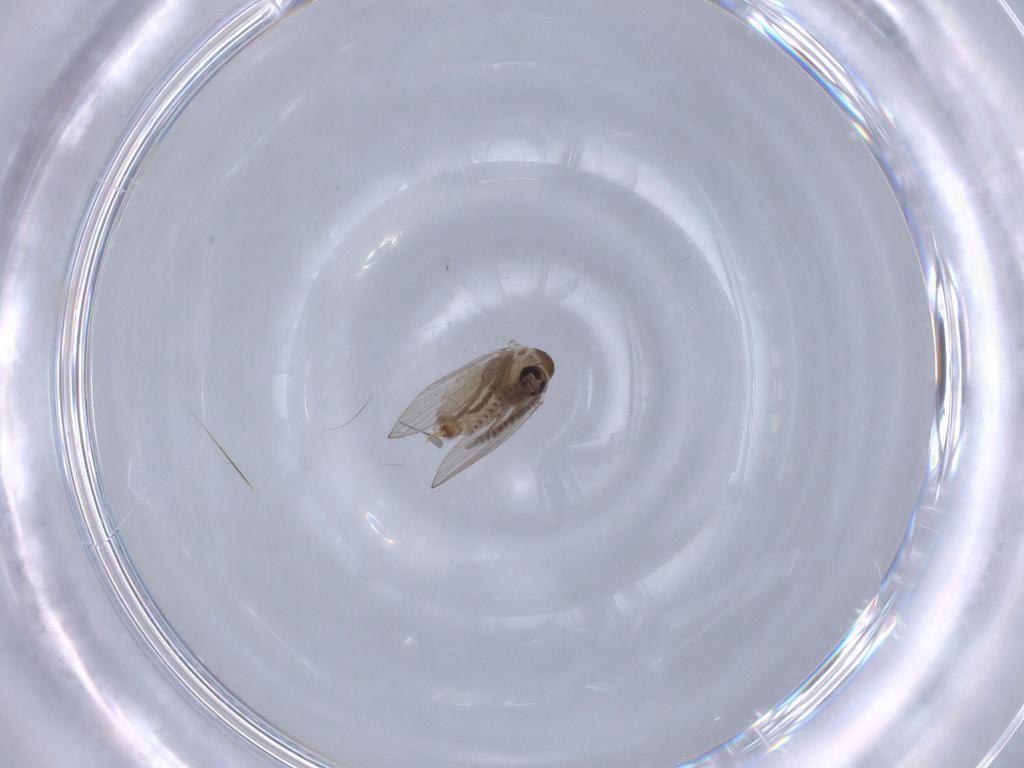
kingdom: Animalia
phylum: Arthropoda
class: Insecta
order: Diptera
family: Psychodidae
